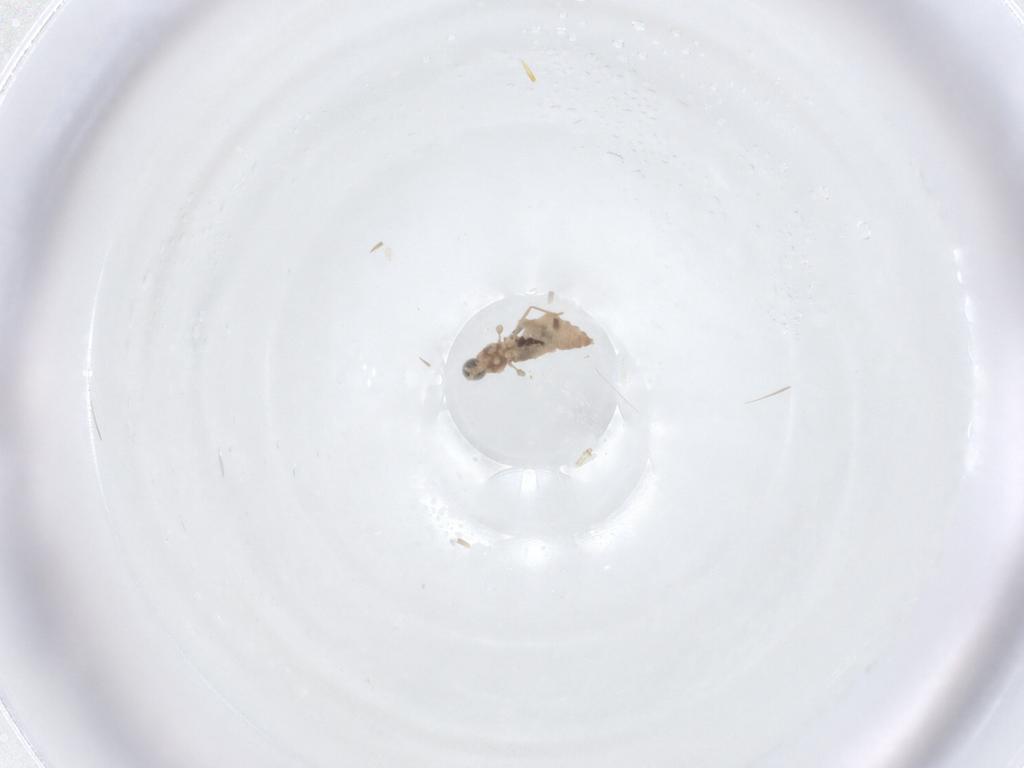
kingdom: Animalia
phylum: Arthropoda
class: Insecta
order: Diptera
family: Cecidomyiidae
